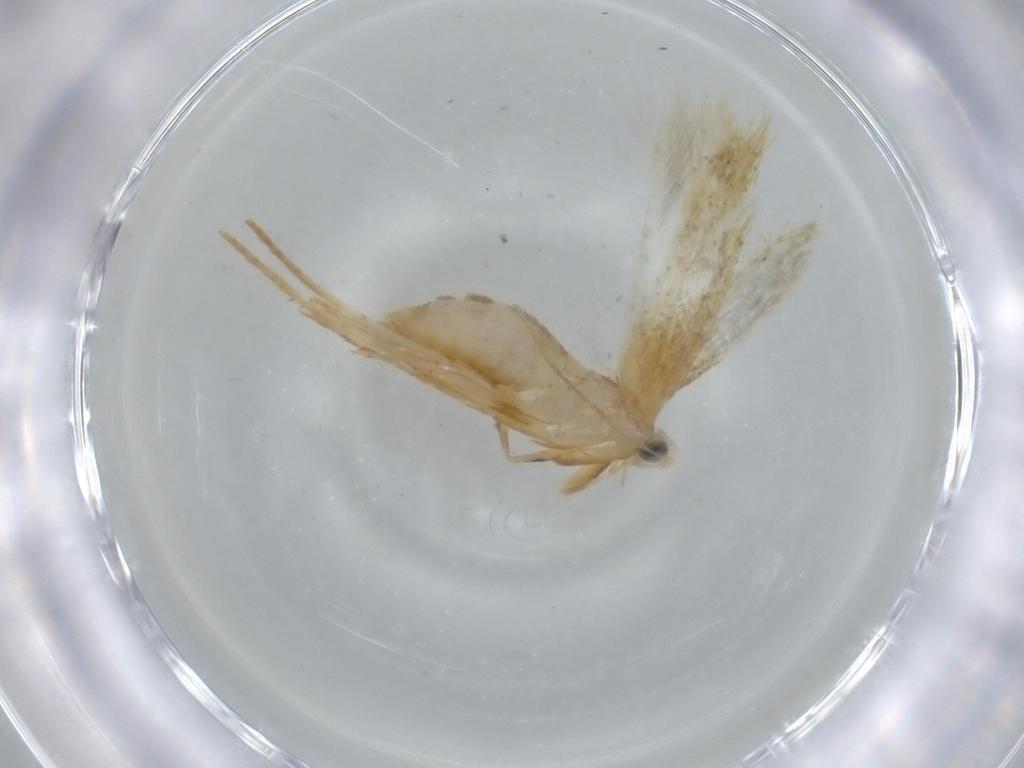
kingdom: Animalia
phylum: Arthropoda
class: Insecta
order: Lepidoptera
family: Tineidae
